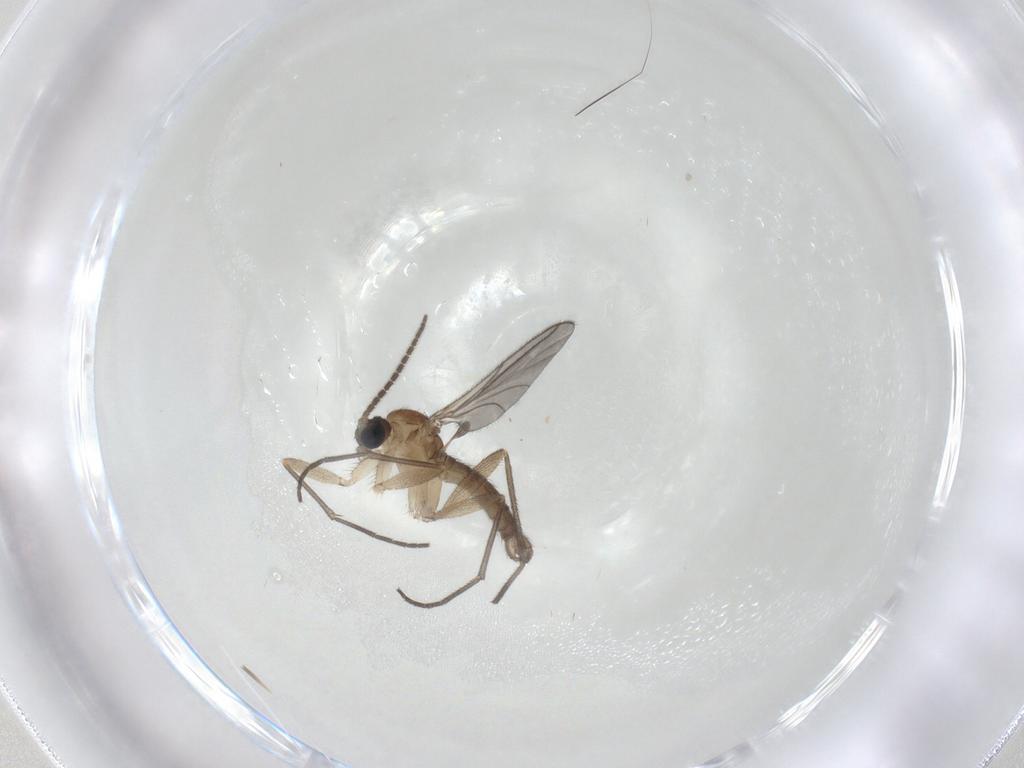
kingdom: Animalia
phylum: Arthropoda
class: Insecta
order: Diptera
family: Sciaridae
